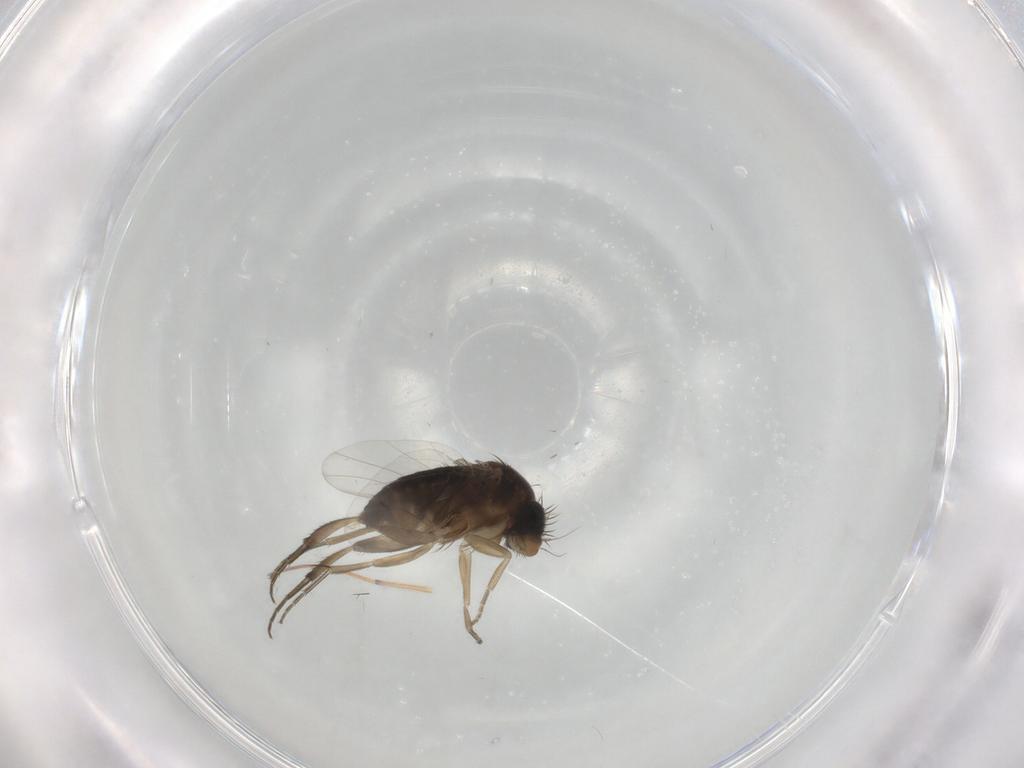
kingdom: Animalia
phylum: Arthropoda
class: Insecta
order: Diptera
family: Phoridae
